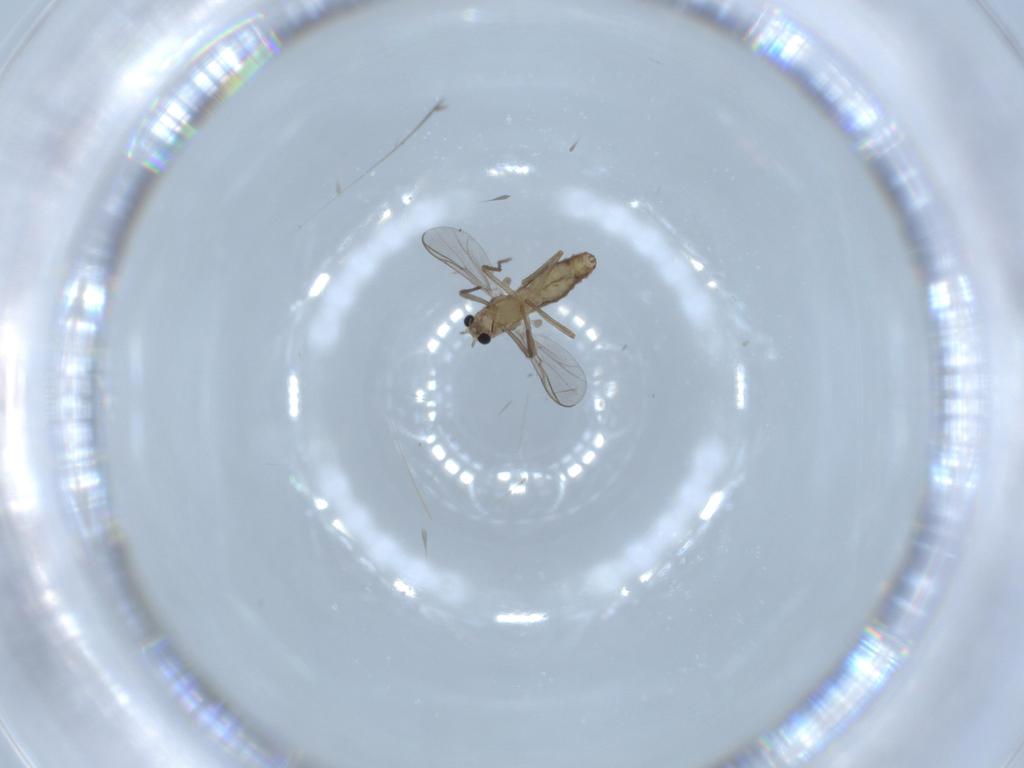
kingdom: Animalia
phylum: Arthropoda
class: Insecta
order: Diptera
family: Chironomidae
